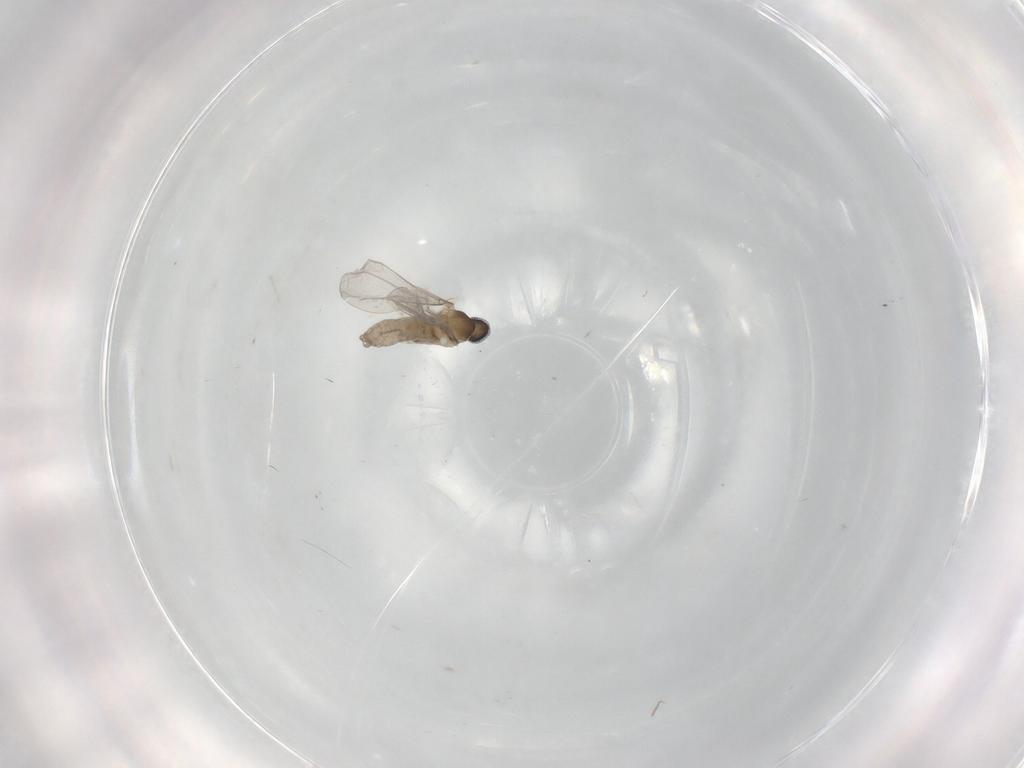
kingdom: Animalia
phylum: Arthropoda
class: Insecta
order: Diptera
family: Cecidomyiidae
